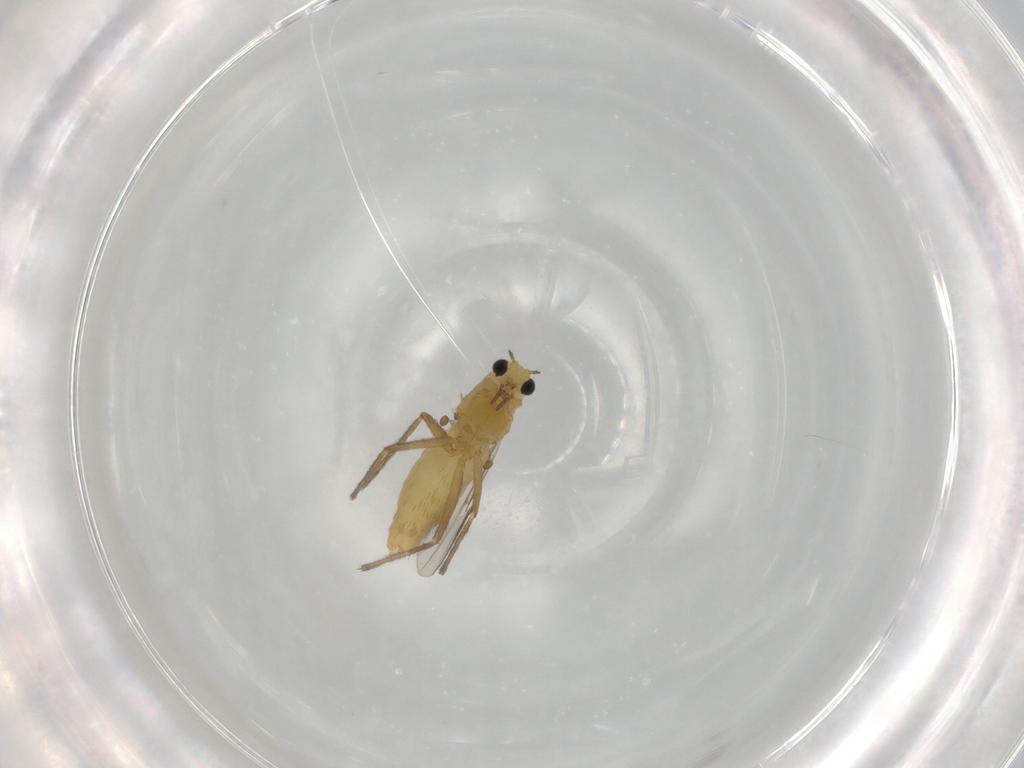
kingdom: Animalia
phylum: Arthropoda
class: Insecta
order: Diptera
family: Chironomidae
